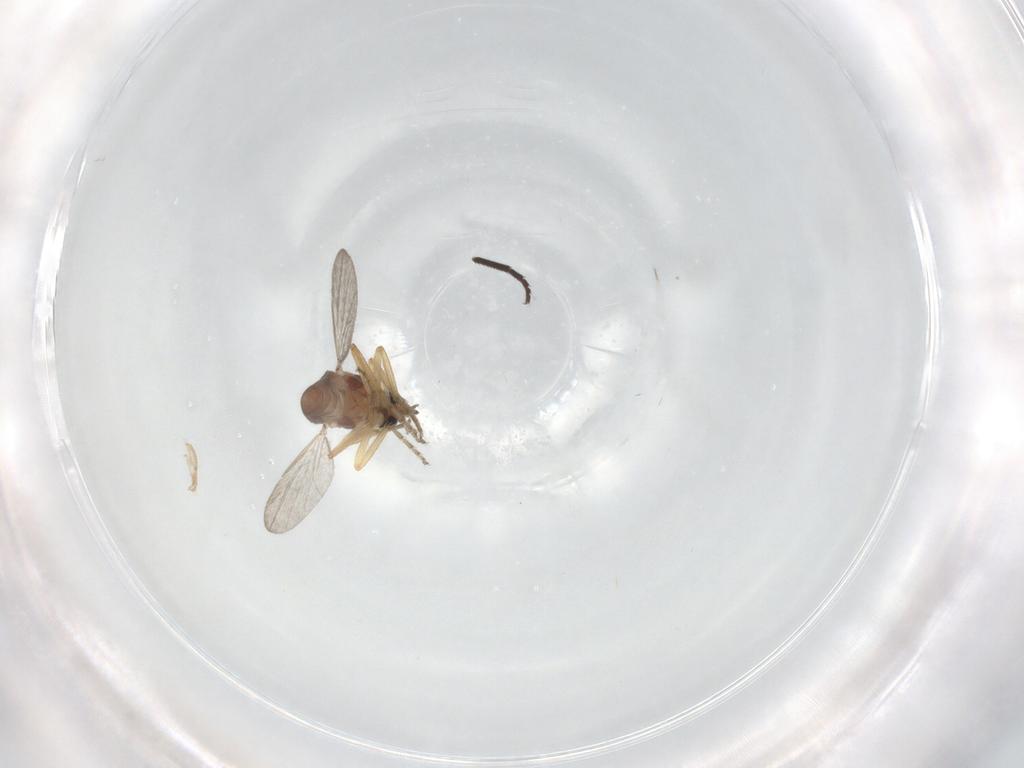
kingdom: Animalia
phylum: Arthropoda
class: Insecta
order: Diptera
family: Ceratopogonidae
